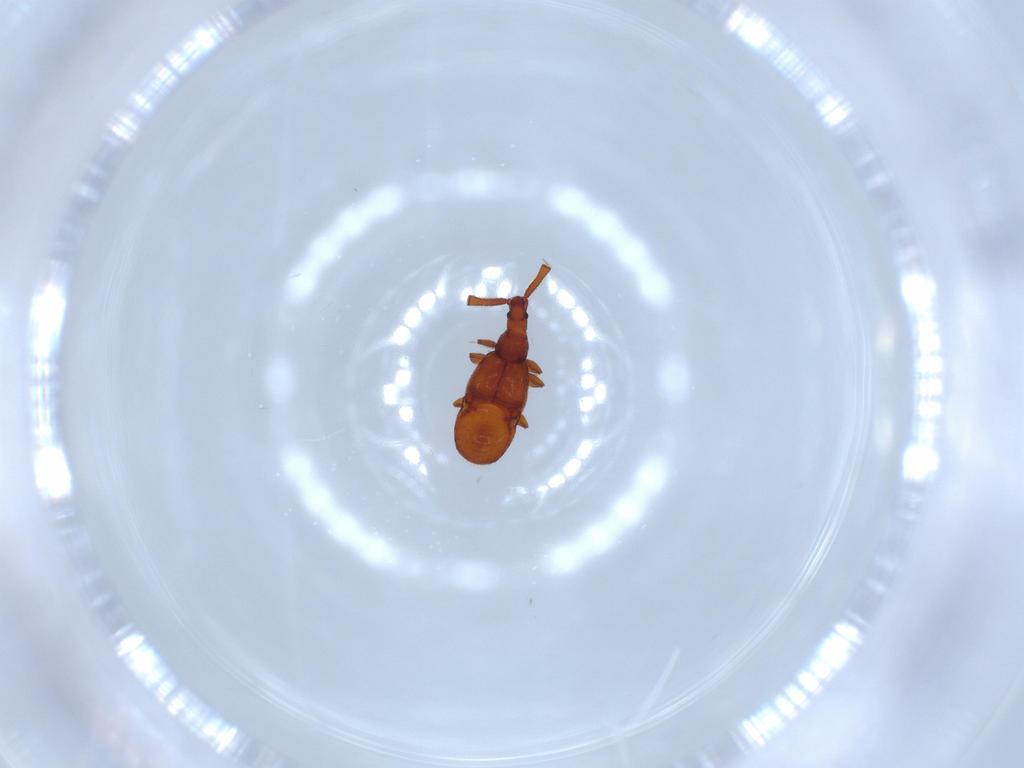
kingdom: Animalia
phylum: Arthropoda
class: Insecta
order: Coleoptera
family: Staphylinidae
